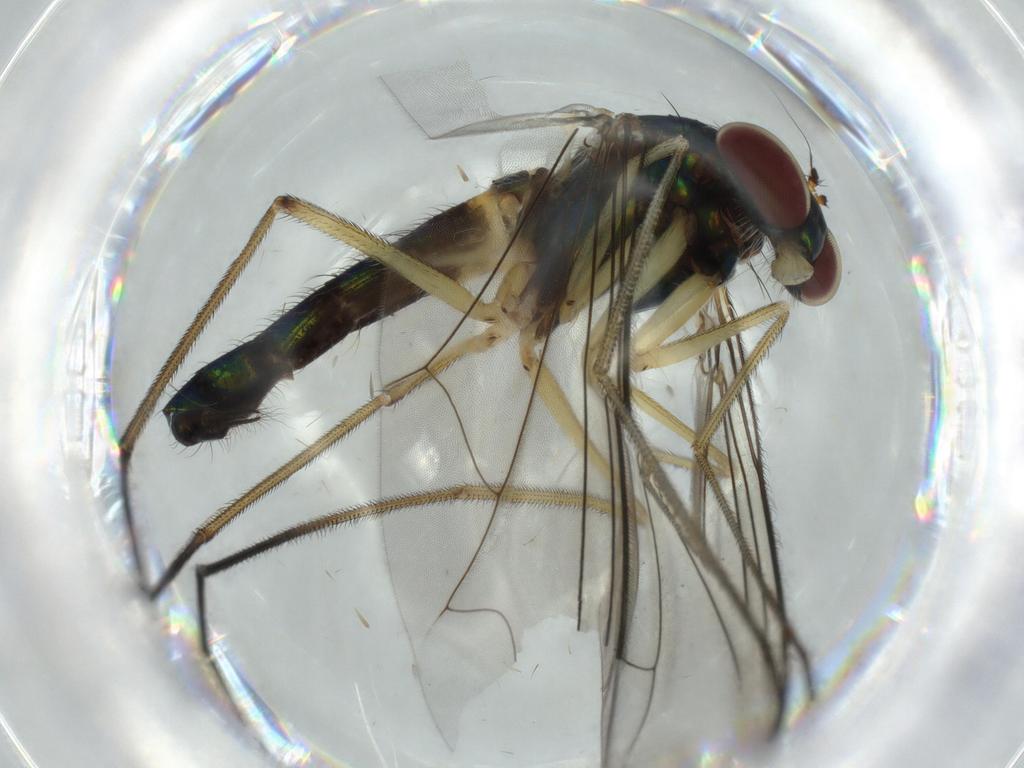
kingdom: Animalia
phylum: Arthropoda
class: Insecta
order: Diptera
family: Dolichopodidae
